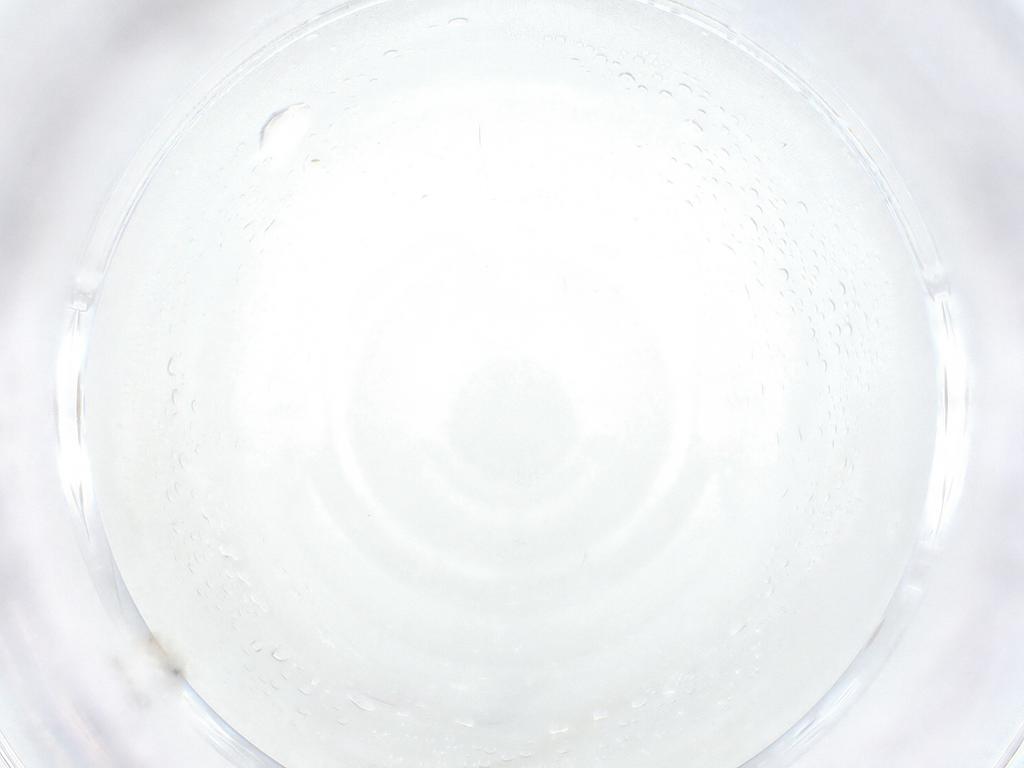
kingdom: Animalia
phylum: Arthropoda
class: Insecta
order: Hymenoptera
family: Mymaridae
